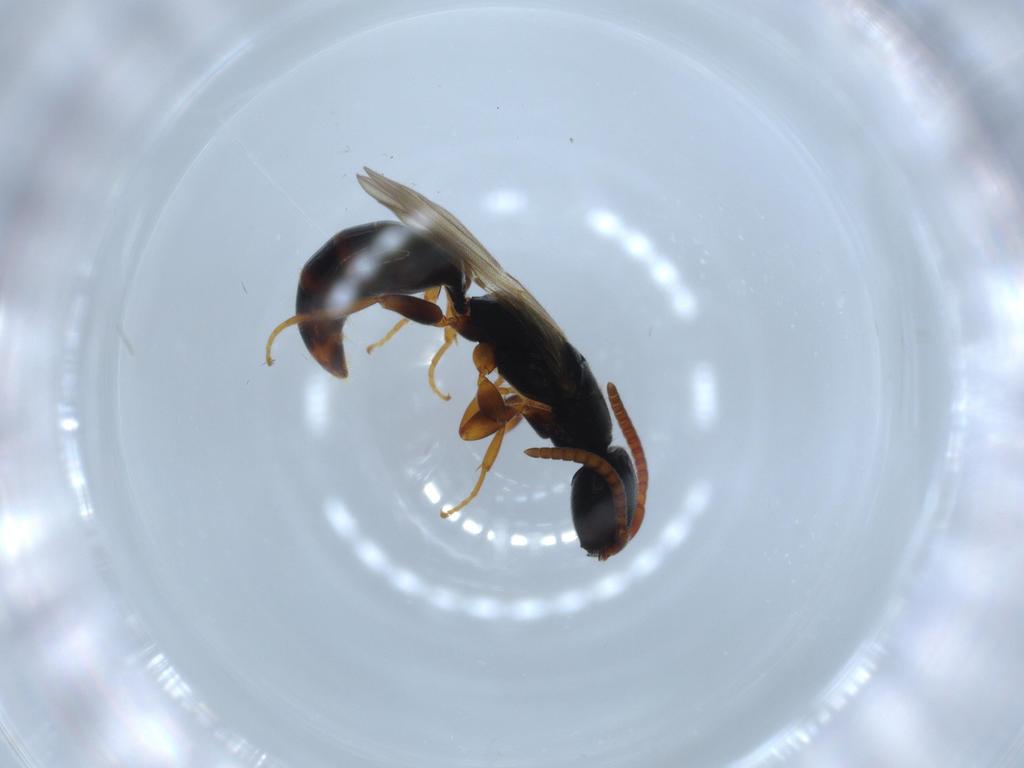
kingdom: Animalia
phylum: Arthropoda
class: Insecta
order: Hymenoptera
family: Bethylidae
